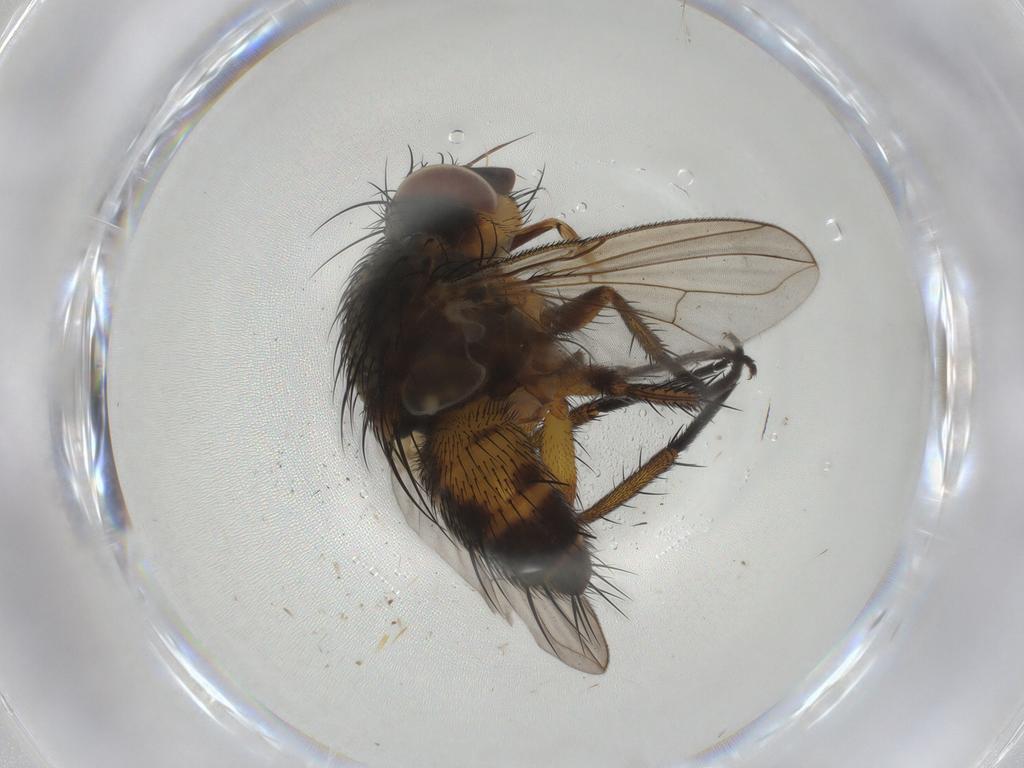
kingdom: Animalia
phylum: Arthropoda
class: Insecta
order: Diptera
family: Tachinidae
